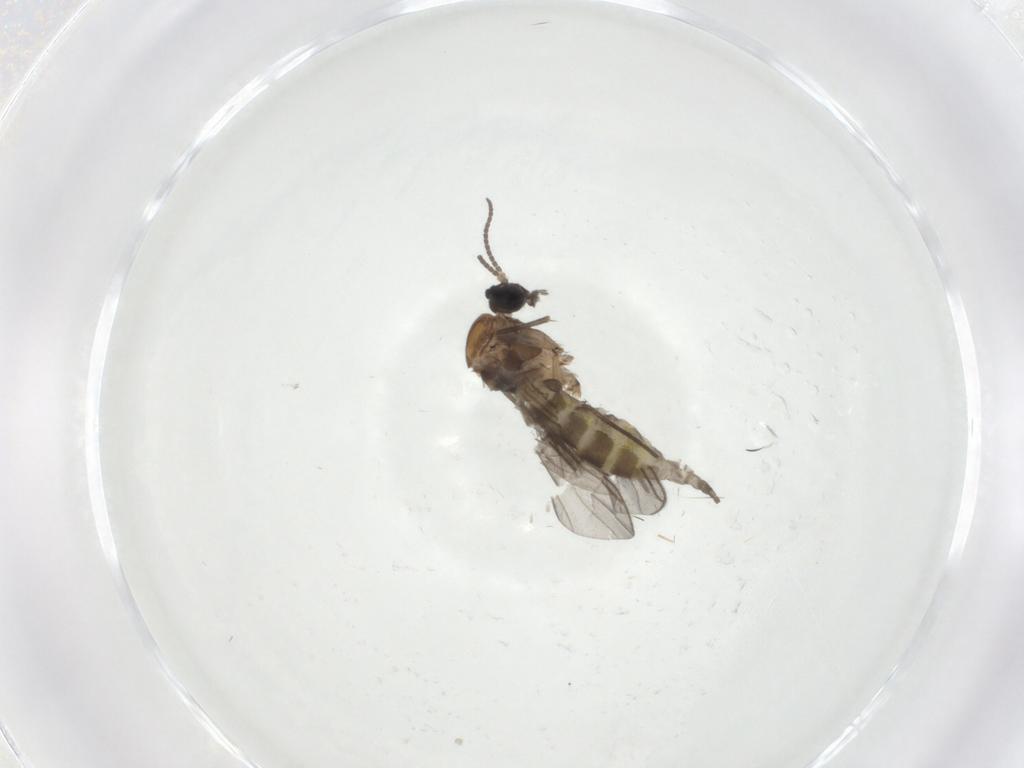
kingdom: Animalia
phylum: Arthropoda
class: Insecta
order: Diptera
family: Sciaridae
